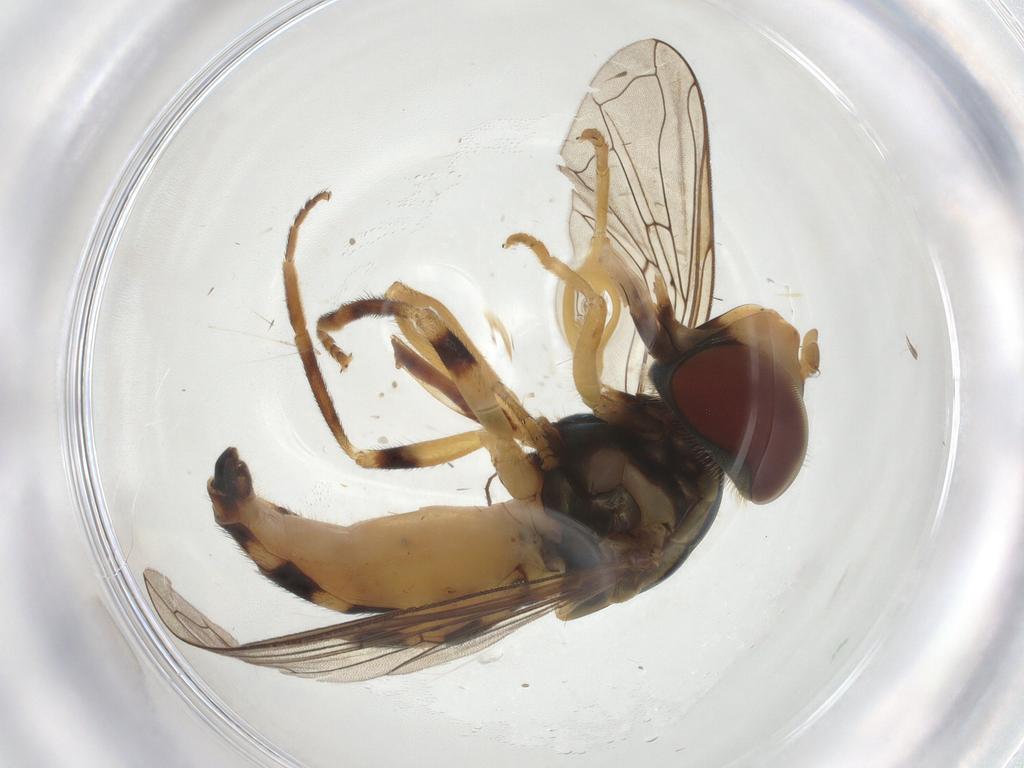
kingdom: Animalia
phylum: Arthropoda
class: Insecta
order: Diptera
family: Syrphidae
